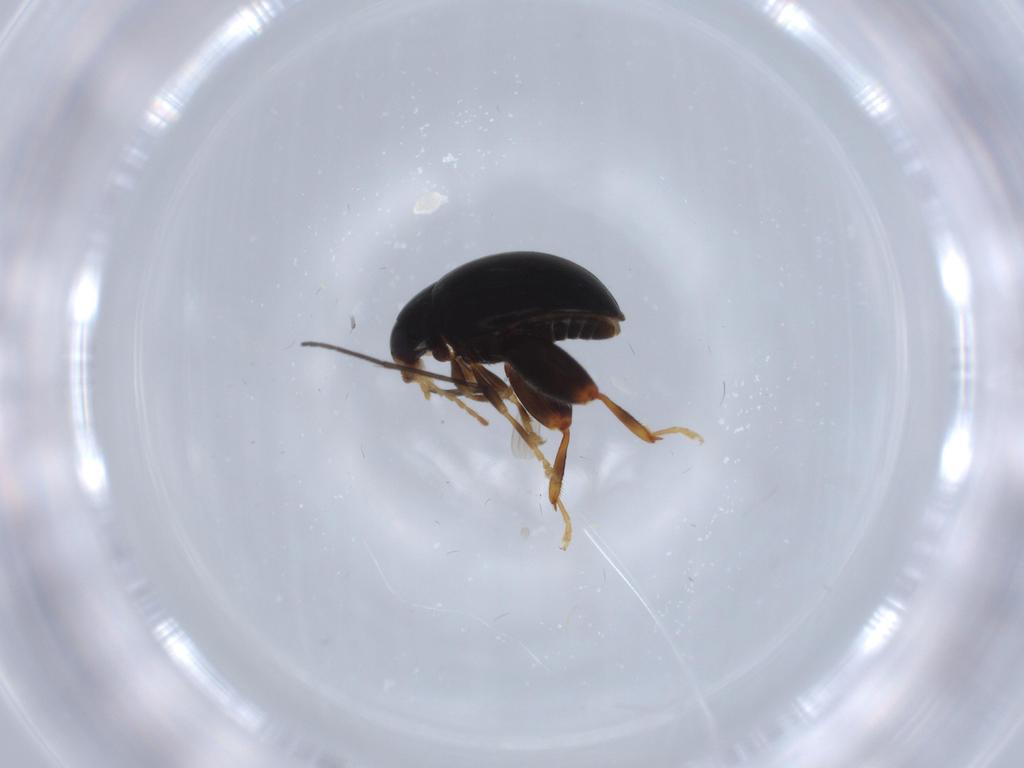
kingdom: Animalia
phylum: Arthropoda
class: Insecta
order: Coleoptera
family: Chrysomelidae
